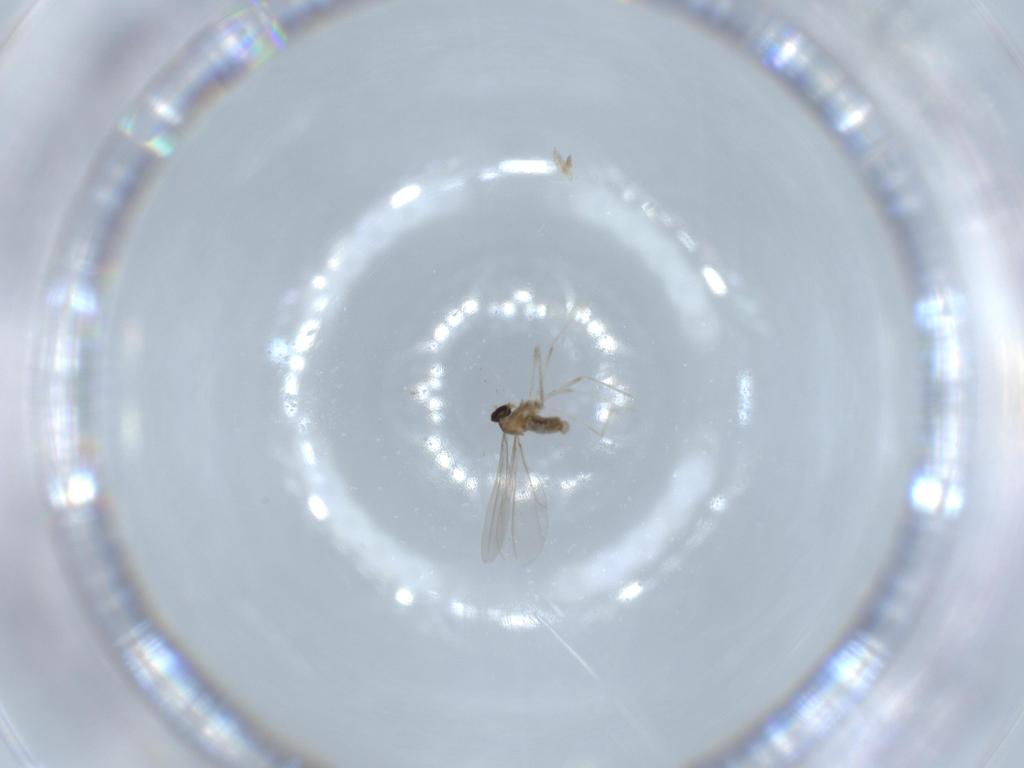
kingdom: Animalia
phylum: Arthropoda
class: Insecta
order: Diptera
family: Cecidomyiidae
